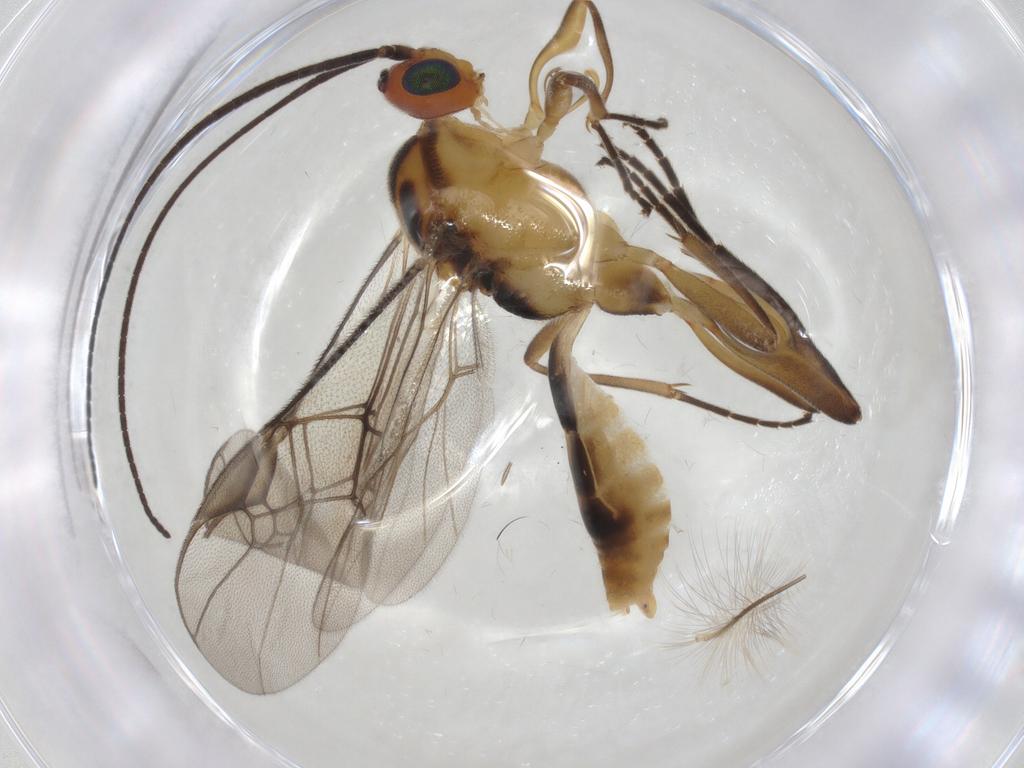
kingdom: Animalia
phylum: Arthropoda
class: Insecta
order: Hymenoptera
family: Braconidae
